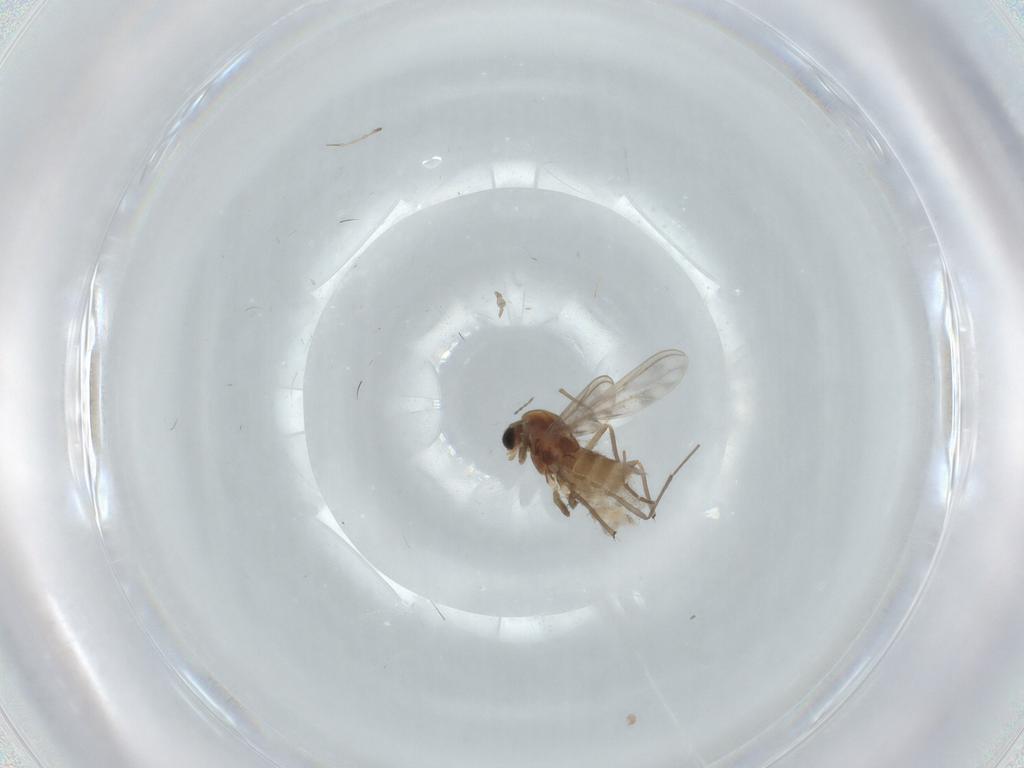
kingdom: Animalia
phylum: Arthropoda
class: Insecta
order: Diptera
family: Chironomidae
